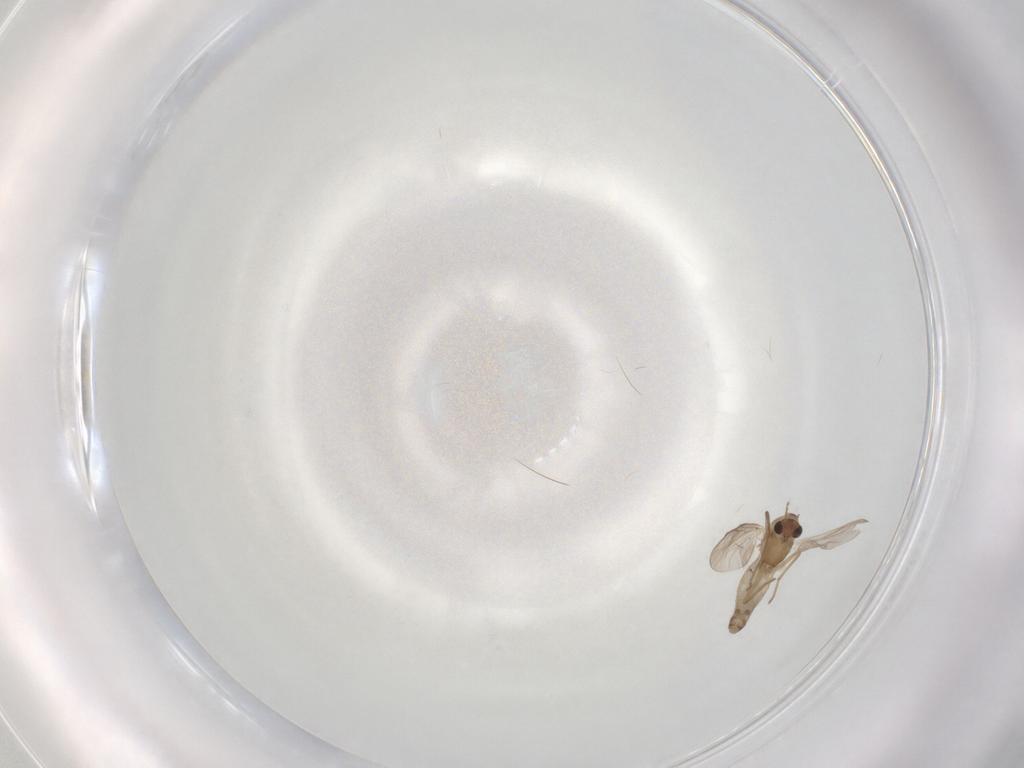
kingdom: Animalia
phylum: Arthropoda
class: Insecta
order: Diptera
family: Chironomidae
